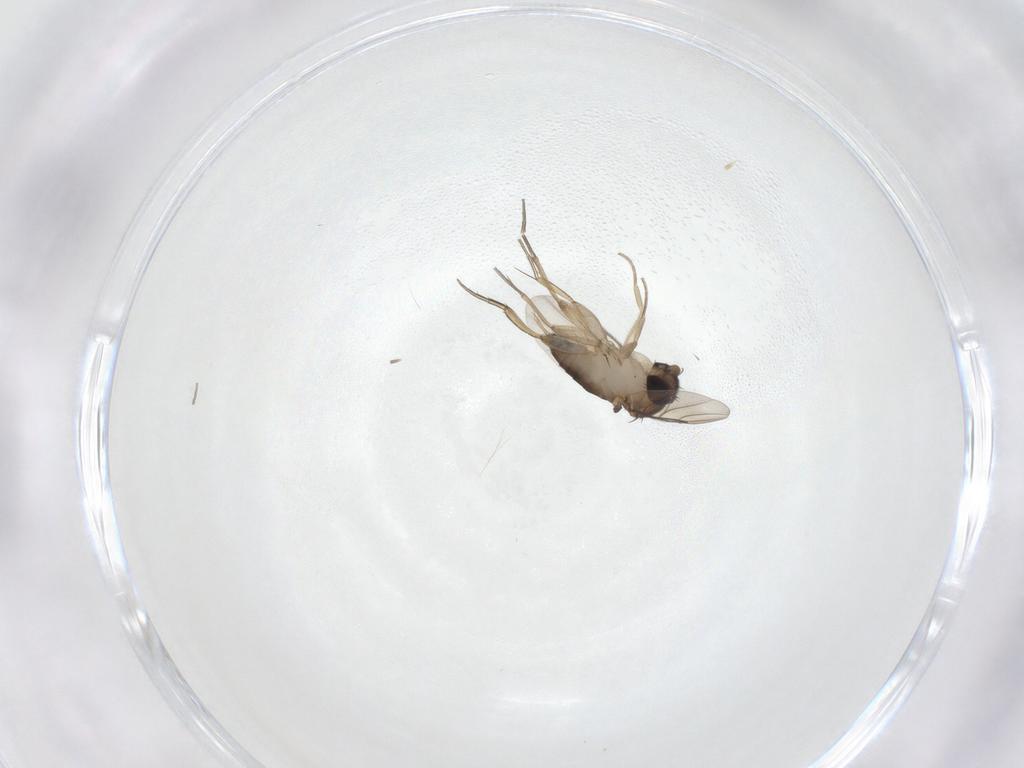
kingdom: Animalia
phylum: Arthropoda
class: Insecta
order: Diptera
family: Phoridae
